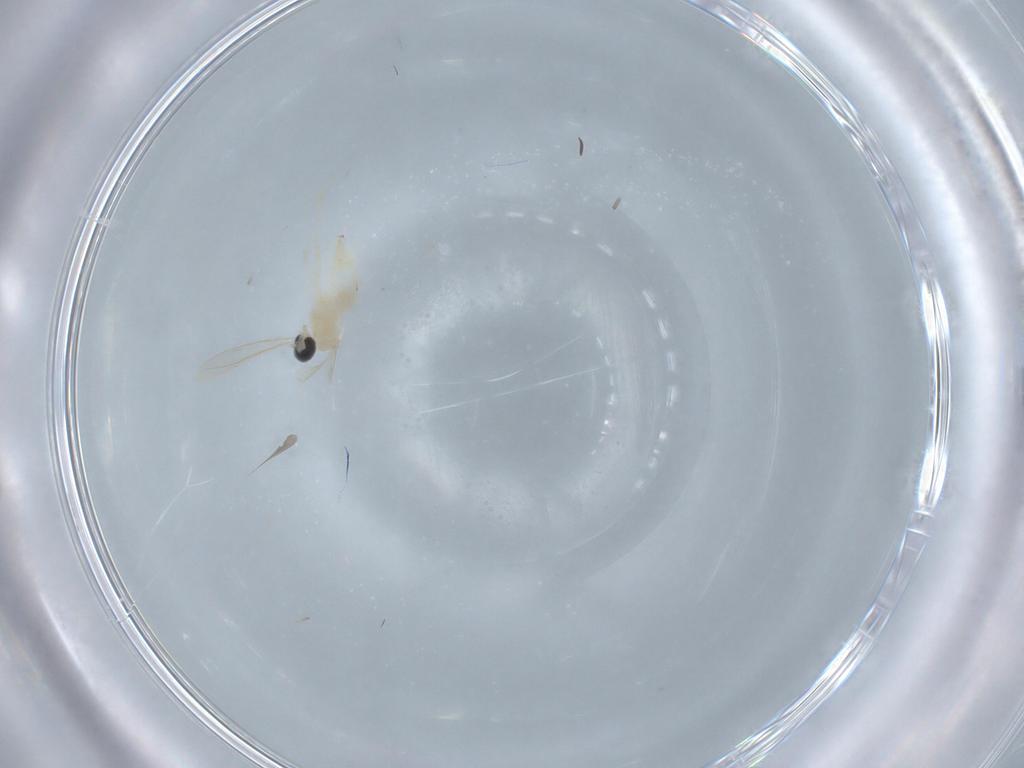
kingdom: Animalia
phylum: Arthropoda
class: Insecta
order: Diptera
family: Cecidomyiidae
